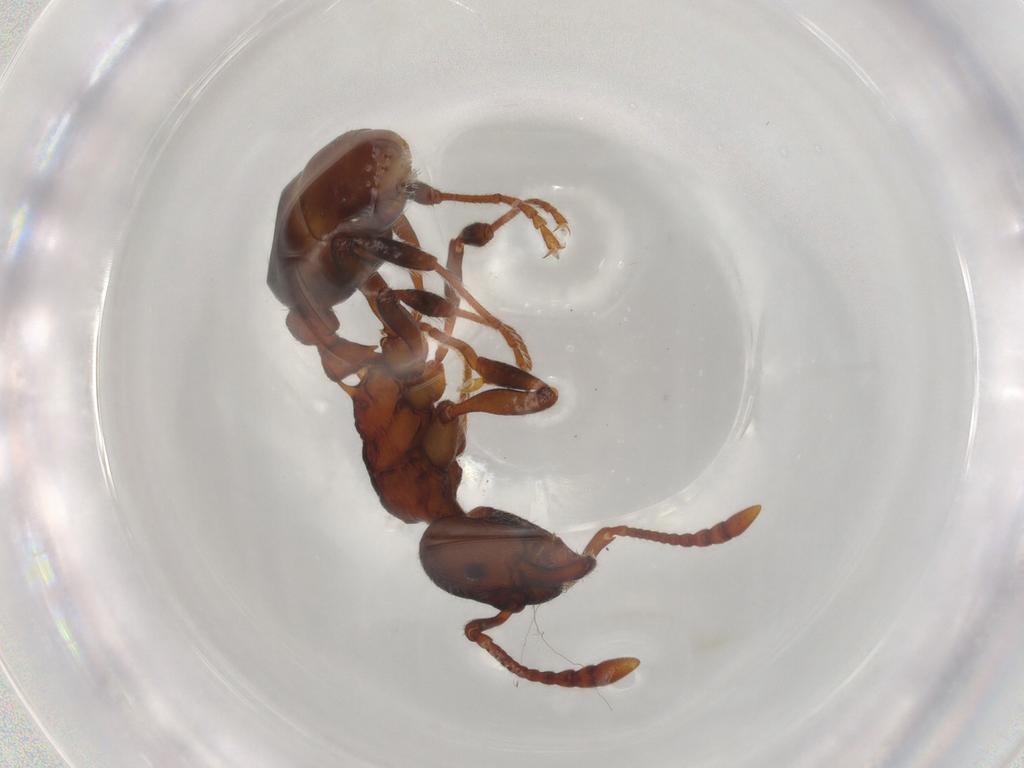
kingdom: Animalia
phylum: Arthropoda
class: Insecta
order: Hymenoptera
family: Formicidae
